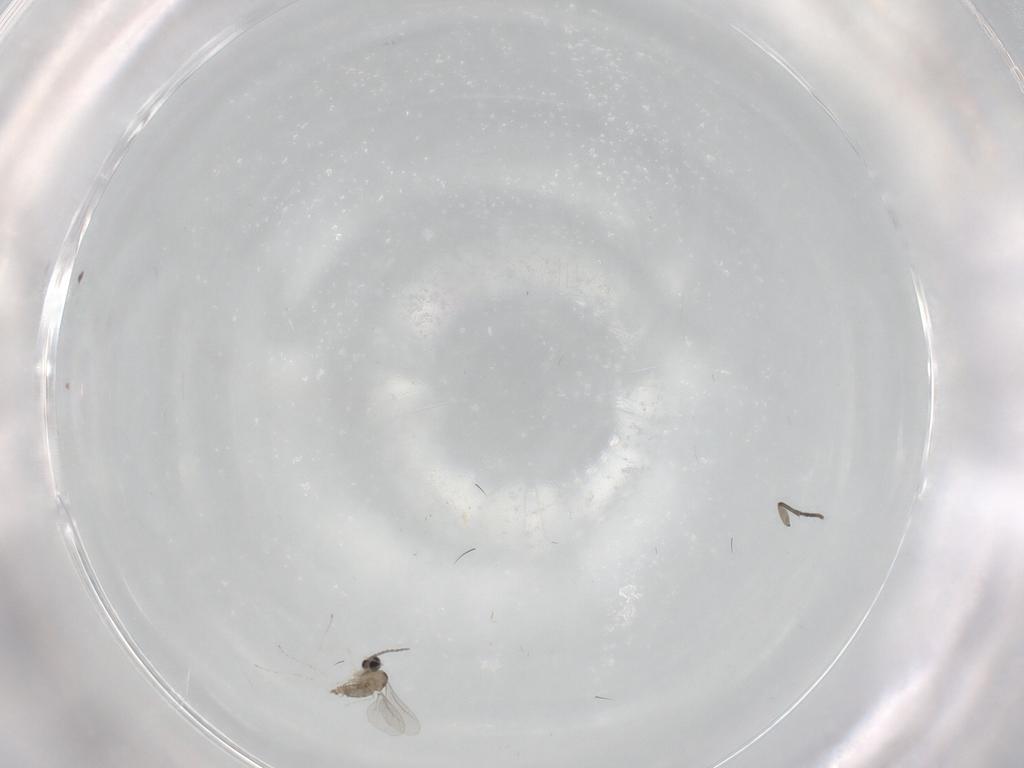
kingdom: Animalia
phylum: Arthropoda
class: Insecta
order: Diptera
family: Cecidomyiidae
